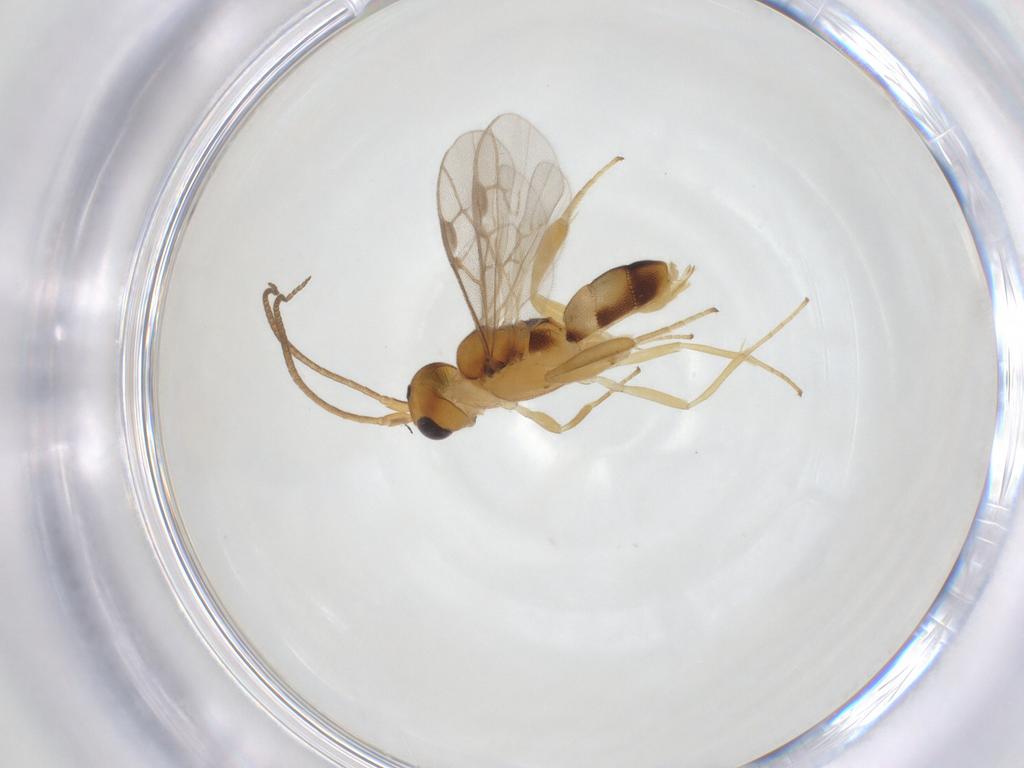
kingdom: Animalia
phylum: Arthropoda
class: Insecta
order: Hymenoptera
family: Braconidae
